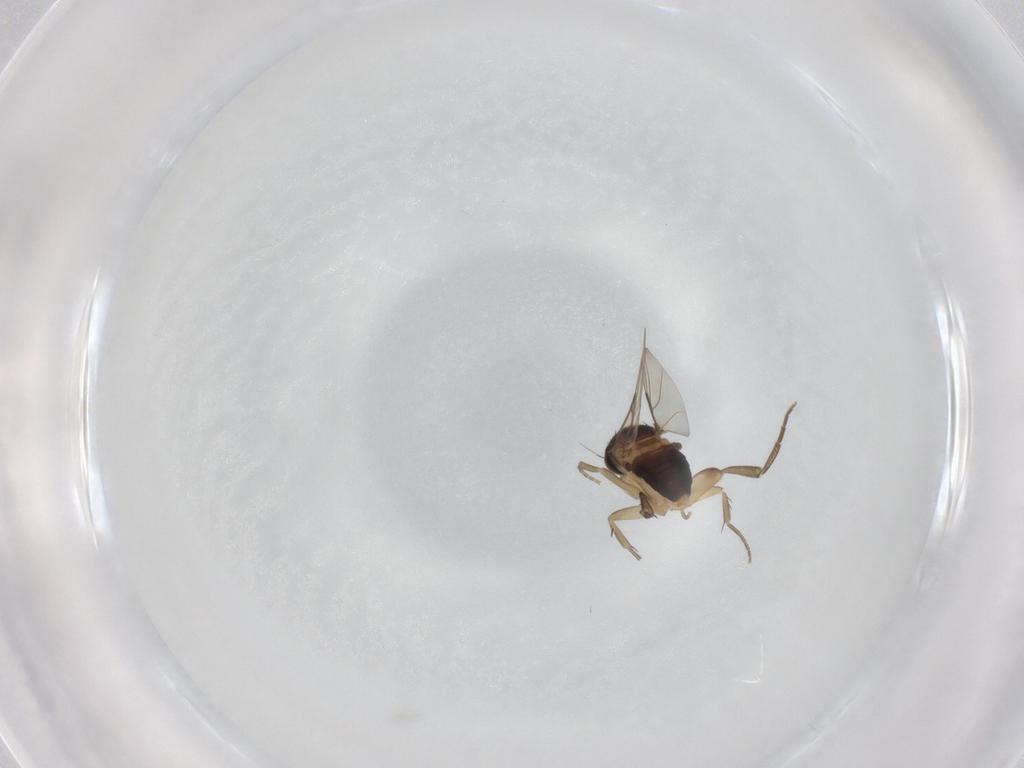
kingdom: Animalia
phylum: Arthropoda
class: Insecta
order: Diptera
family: Phoridae
